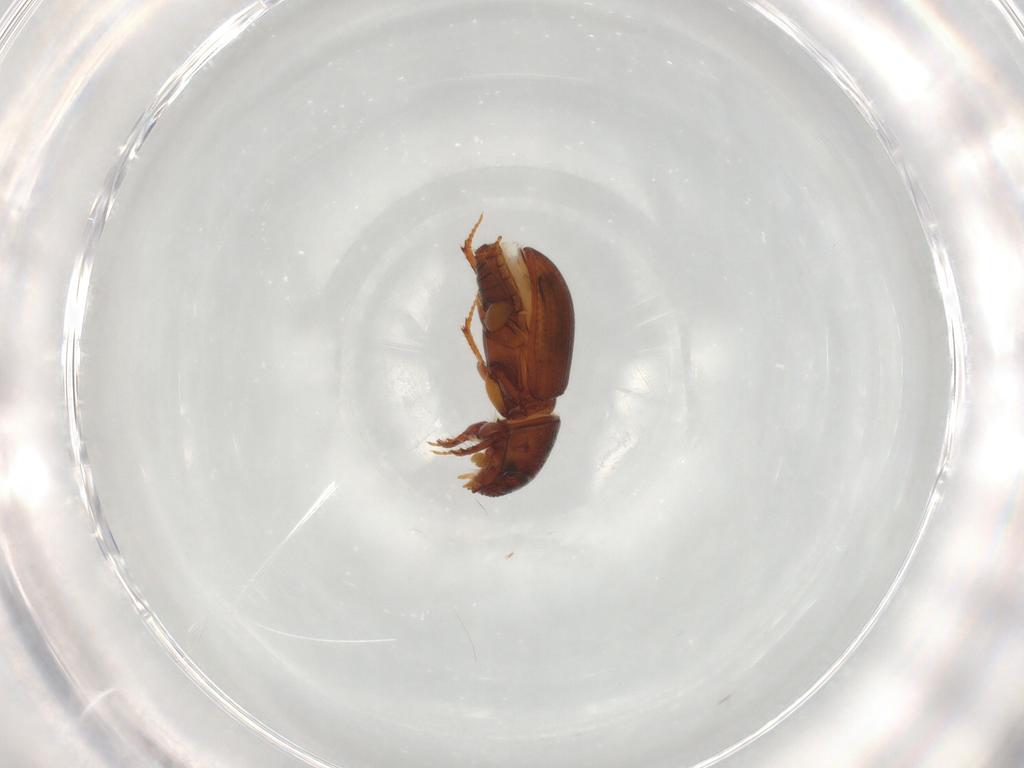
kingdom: Animalia
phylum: Arthropoda
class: Insecta
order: Coleoptera
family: Scarabaeidae
